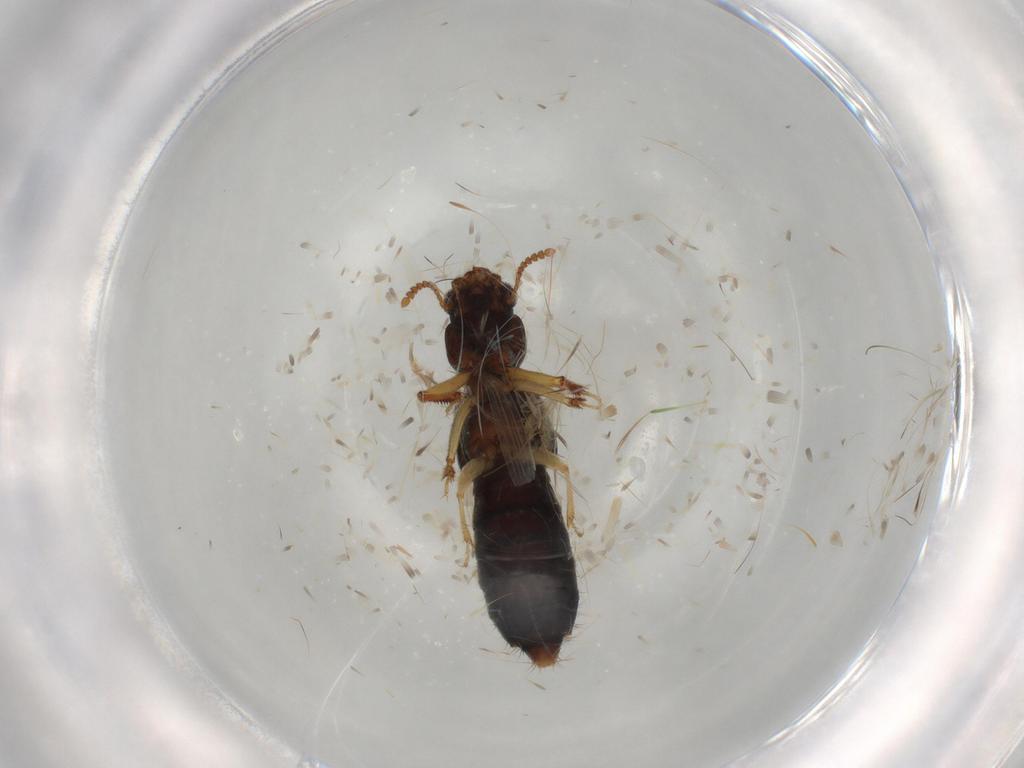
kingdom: Animalia
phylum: Arthropoda
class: Insecta
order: Coleoptera
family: Staphylinidae
